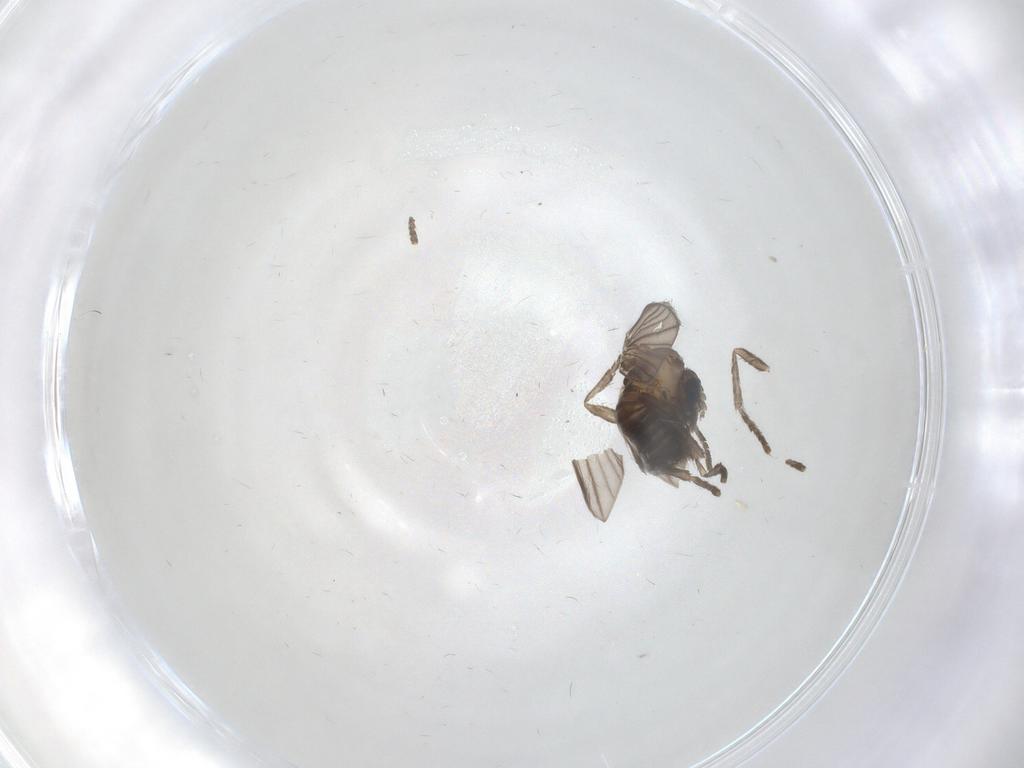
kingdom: Animalia
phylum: Arthropoda
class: Insecta
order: Diptera
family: Psychodidae
